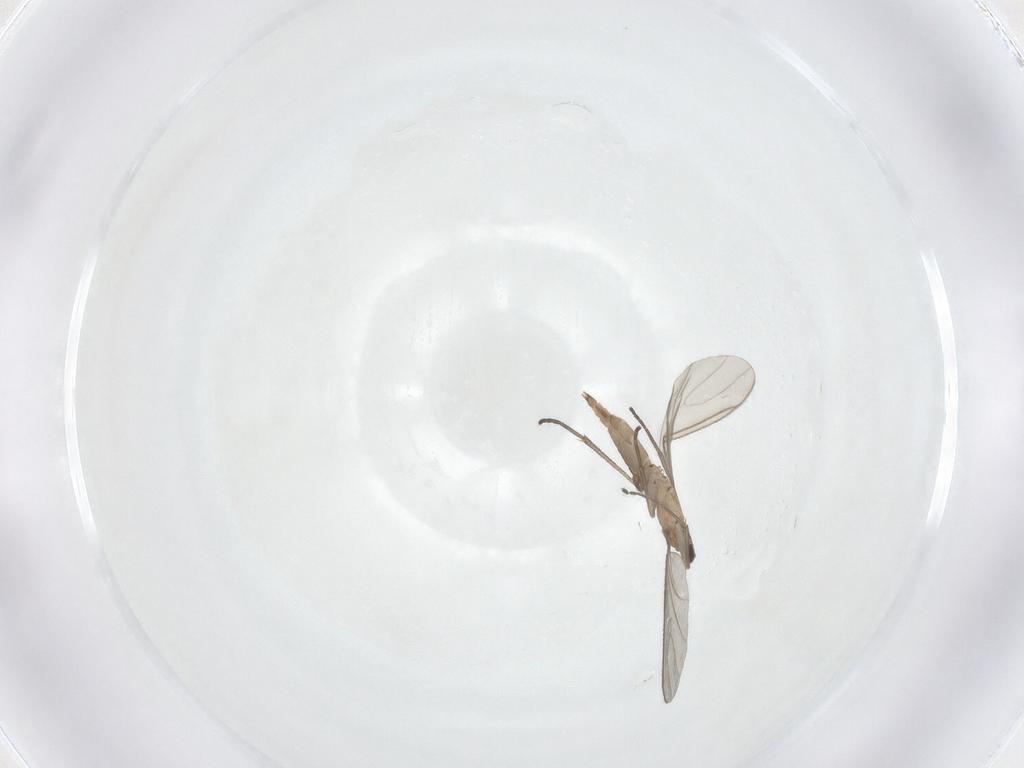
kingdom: Animalia
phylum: Arthropoda
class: Insecta
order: Diptera
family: Sciaridae
